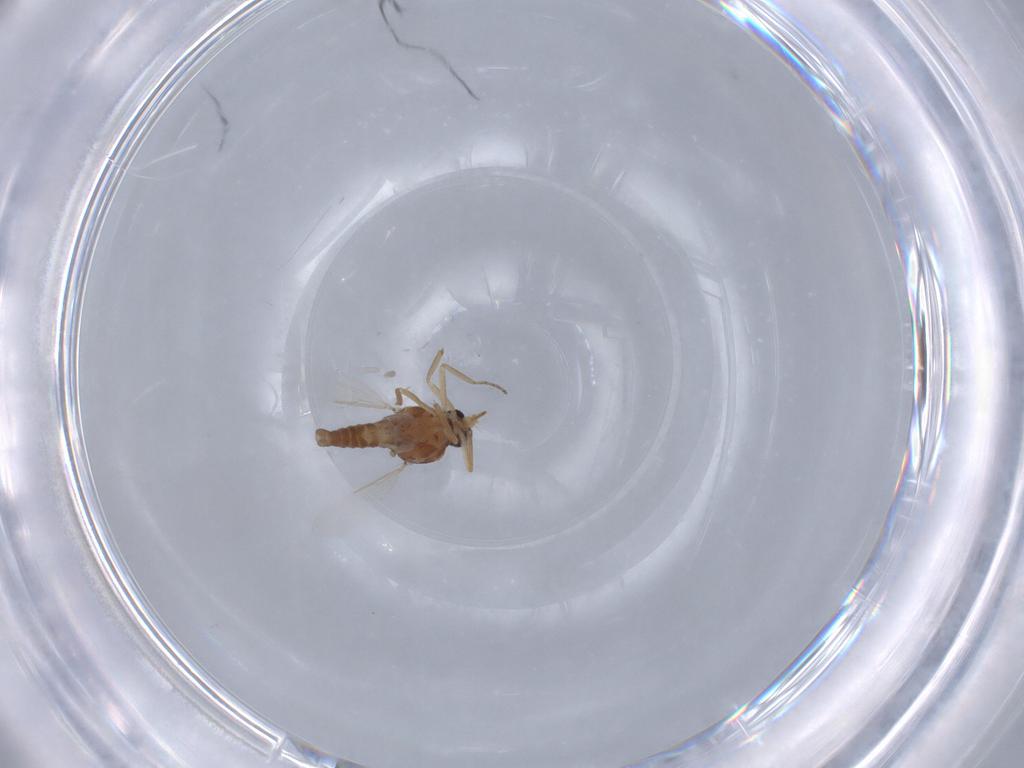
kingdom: Animalia
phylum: Arthropoda
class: Insecta
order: Diptera
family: Ceratopogonidae
